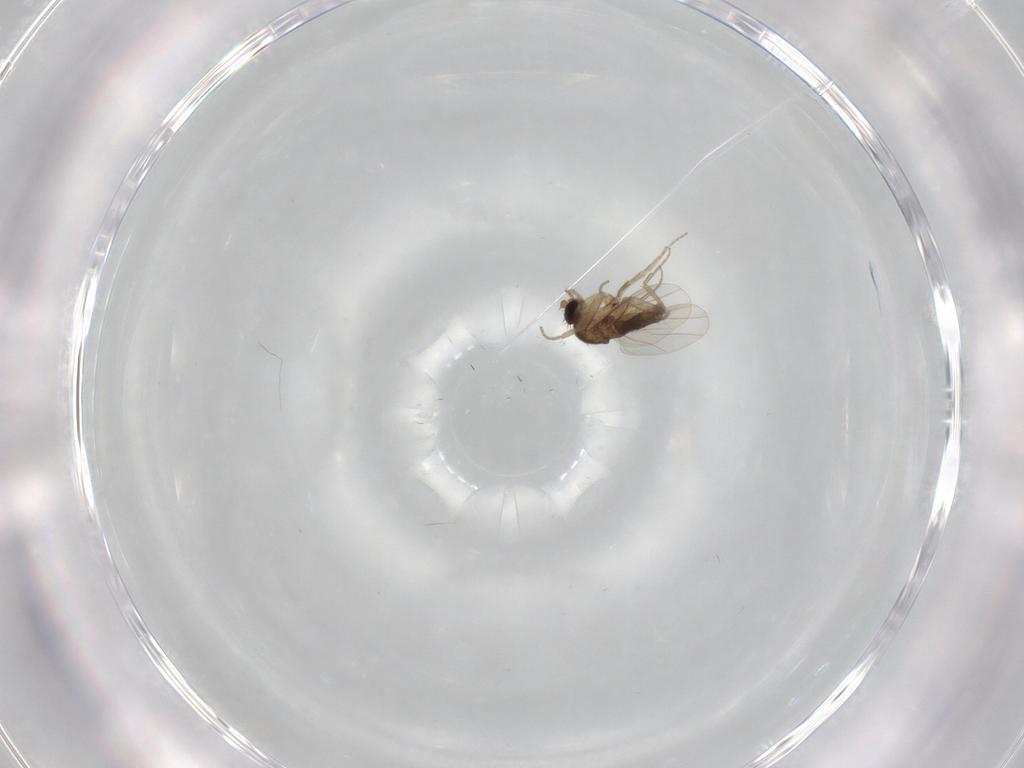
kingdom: Animalia
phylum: Arthropoda
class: Insecta
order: Diptera
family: Phoridae
